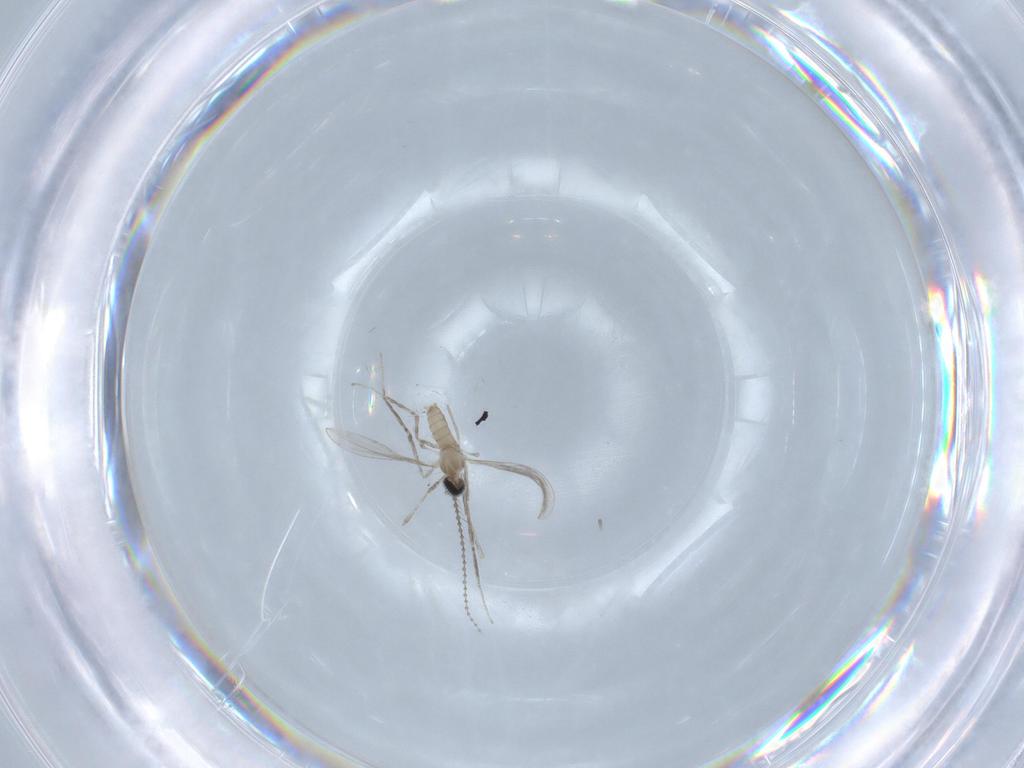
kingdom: Animalia
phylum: Arthropoda
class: Insecta
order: Diptera
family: Cecidomyiidae
